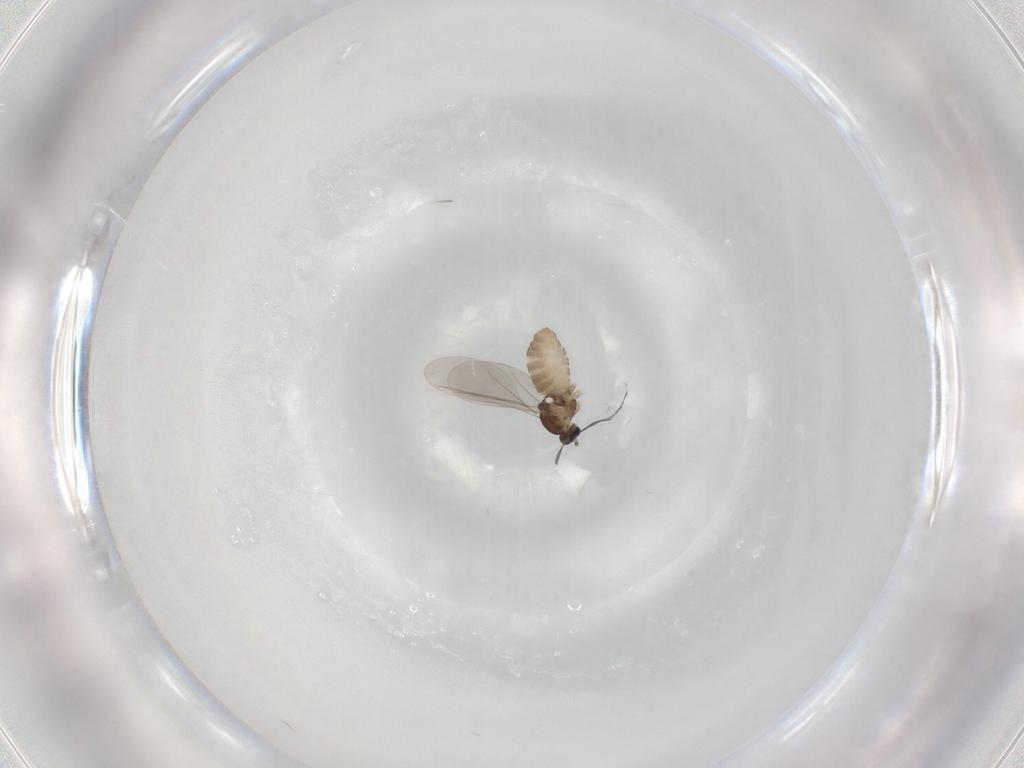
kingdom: Animalia
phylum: Arthropoda
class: Insecta
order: Diptera
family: Cecidomyiidae
